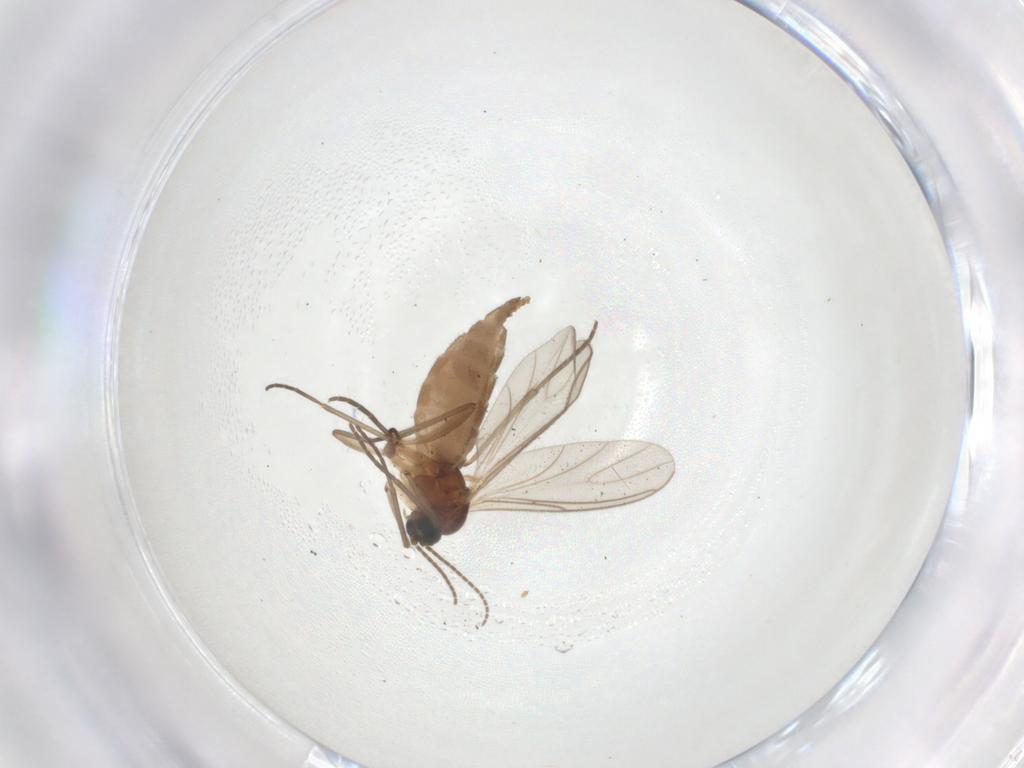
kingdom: Animalia
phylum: Arthropoda
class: Insecta
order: Diptera
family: Sciaridae
